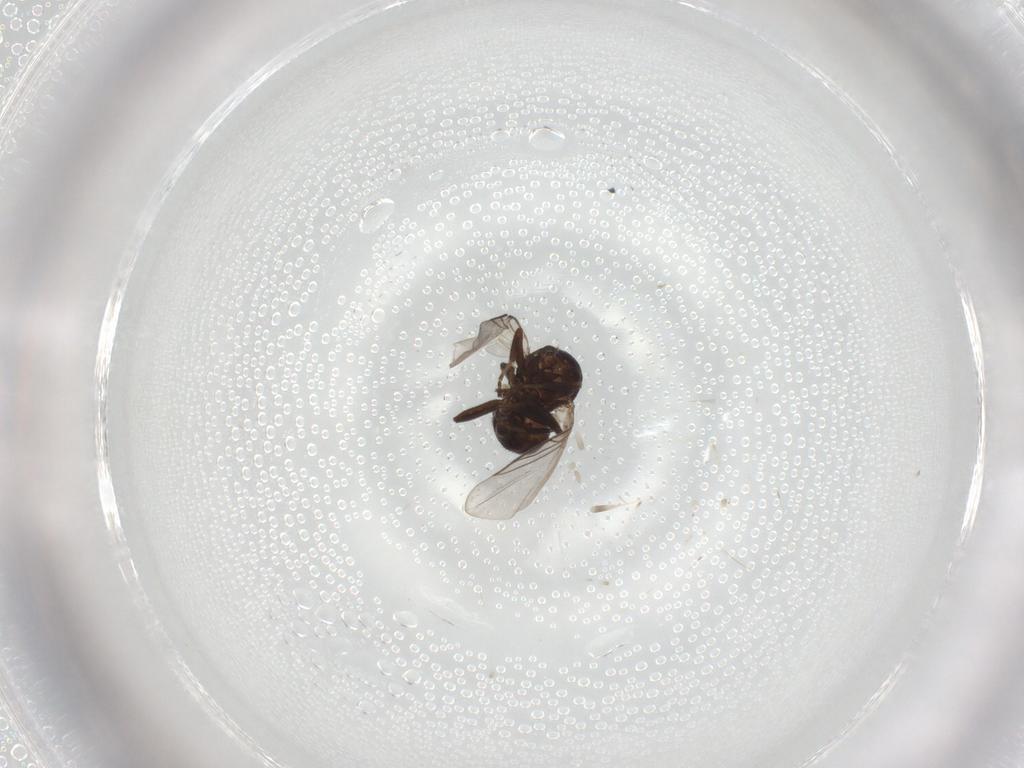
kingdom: Animalia
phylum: Arthropoda
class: Insecta
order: Diptera
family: Agromyzidae
